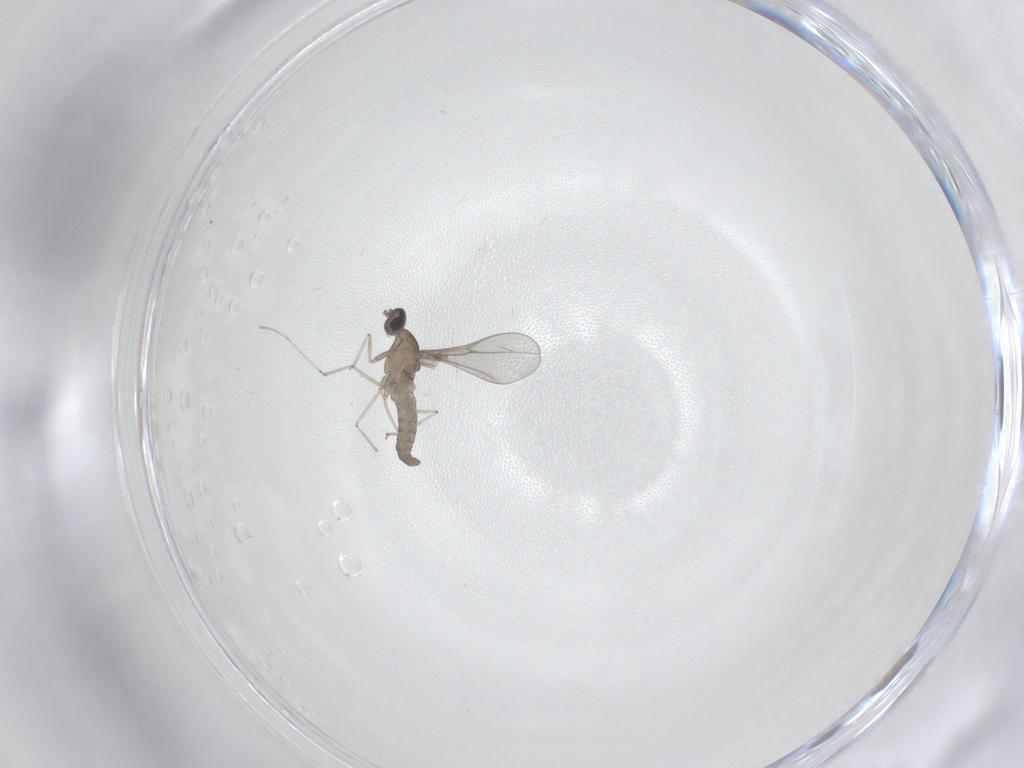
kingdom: Animalia
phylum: Arthropoda
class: Insecta
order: Diptera
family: Cecidomyiidae
